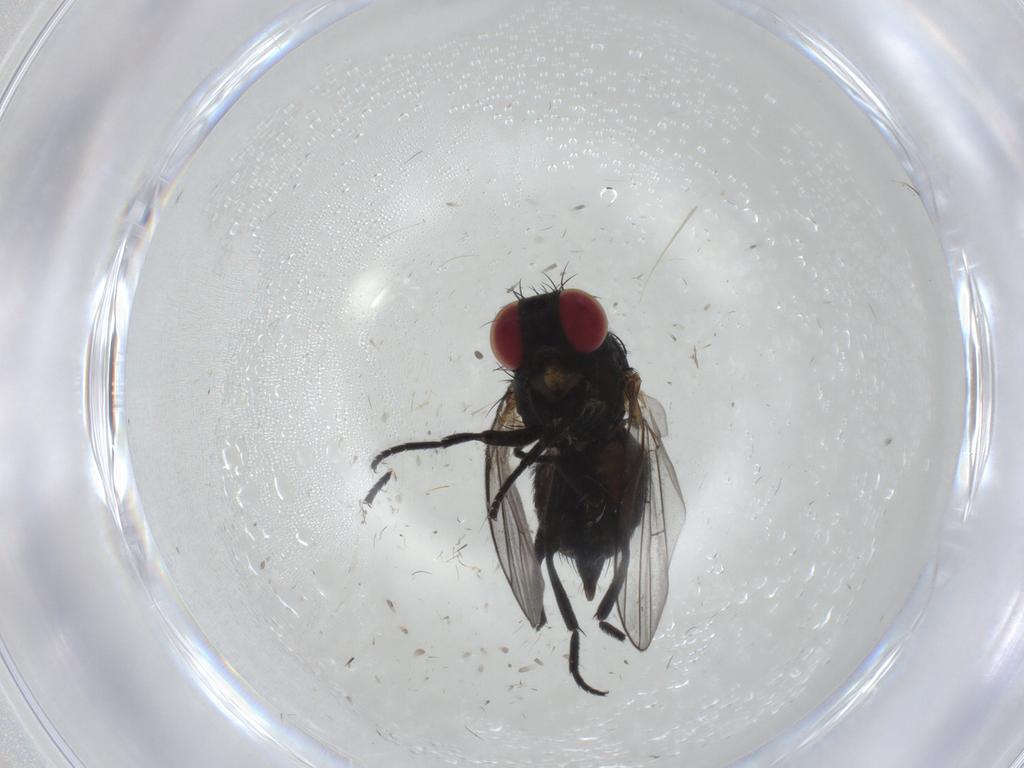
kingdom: Animalia
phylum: Arthropoda
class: Insecta
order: Diptera
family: Agromyzidae
